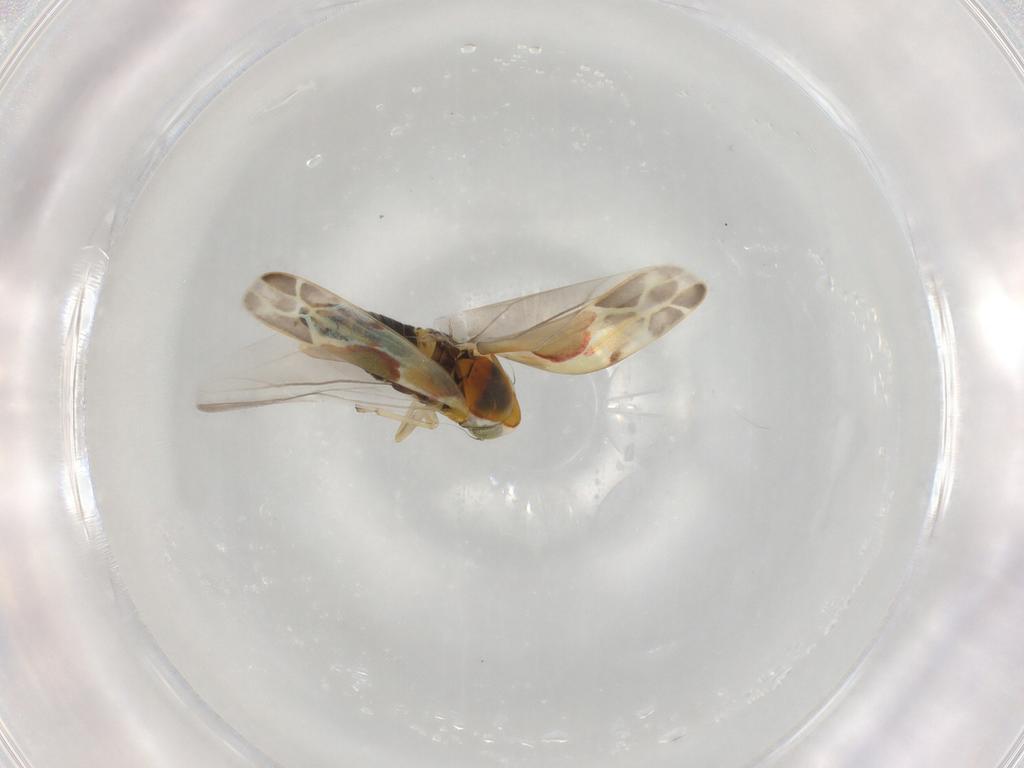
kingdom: Animalia
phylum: Arthropoda
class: Insecta
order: Hemiptera
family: Cicadellidae
